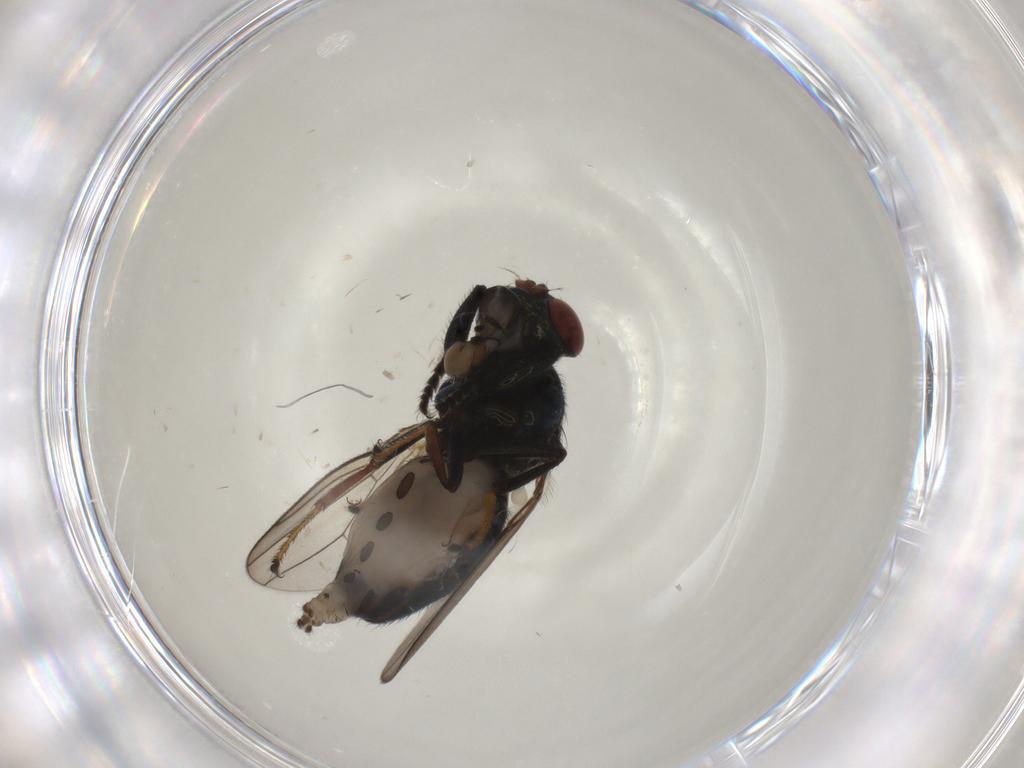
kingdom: Animalia
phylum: Arthropoda
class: Insecta
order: Diptera
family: Ephydridae
